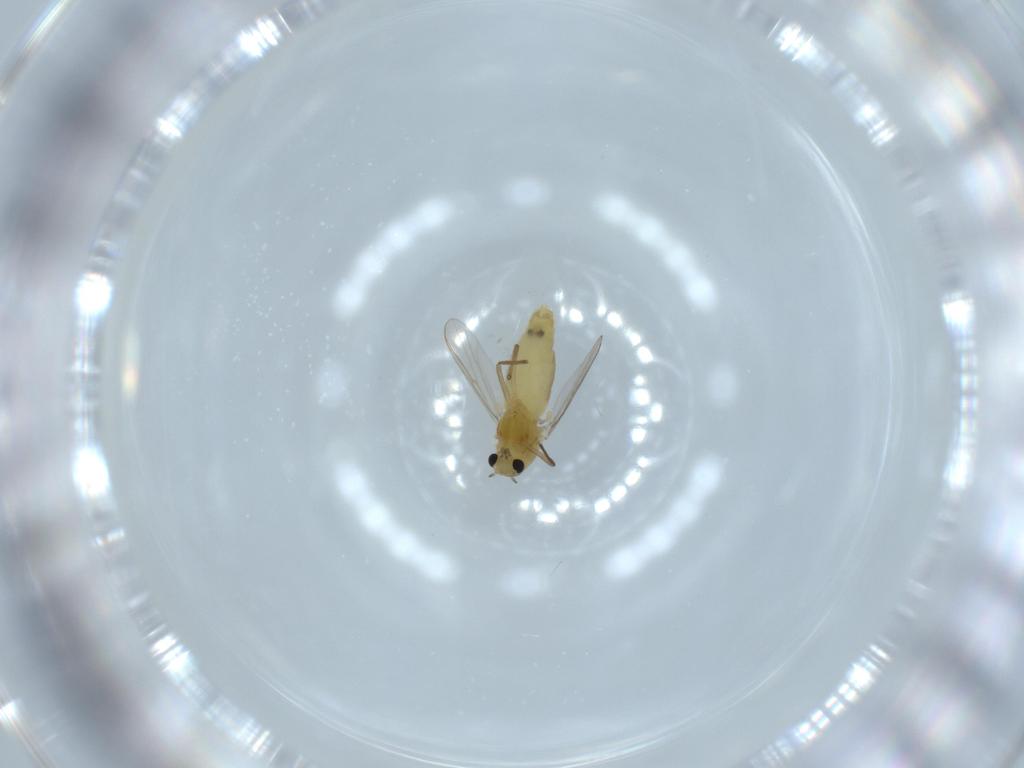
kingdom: Animalia
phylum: Arthropoda
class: Insecta
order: Diptera
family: Chironomidae
